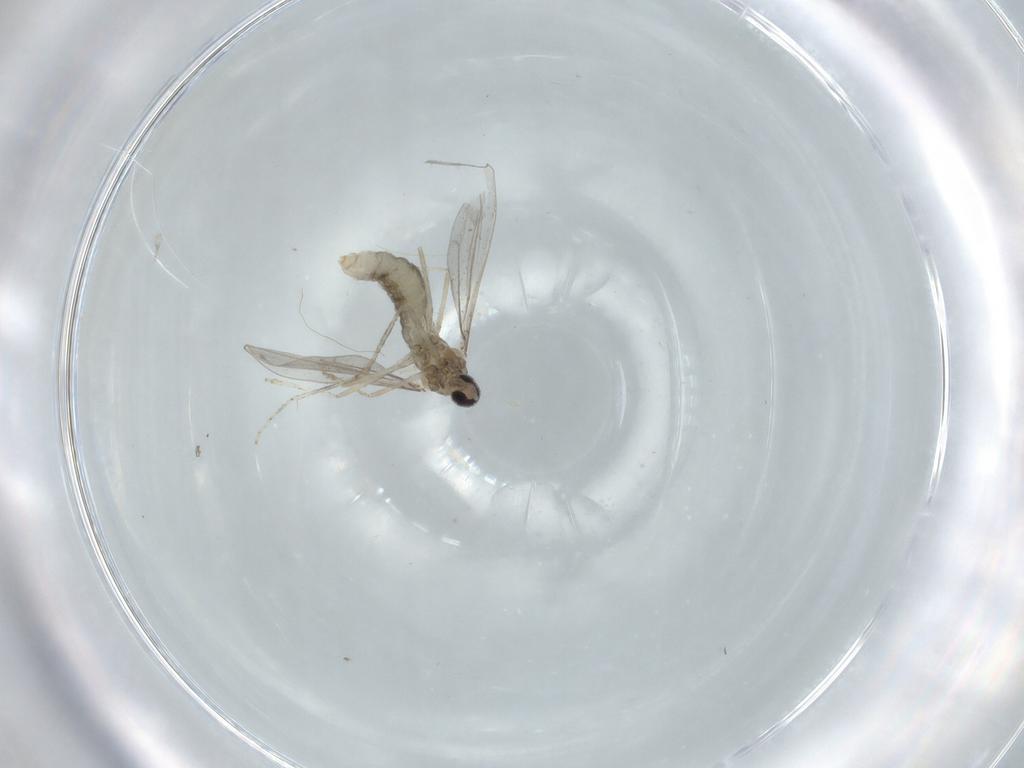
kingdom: Animalia
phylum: Arthropoda
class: Insecta
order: Diptera
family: Cecidomyiidae
